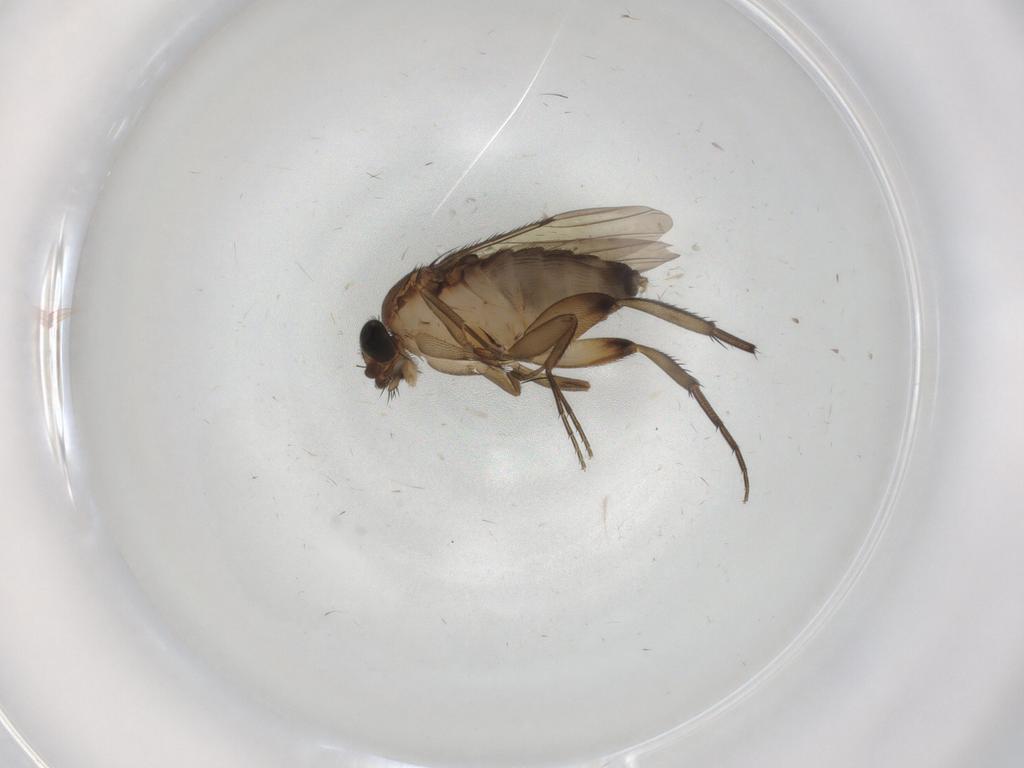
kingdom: Animalia
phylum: Arthropoda
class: Insecta
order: Diptera
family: Phoridae
